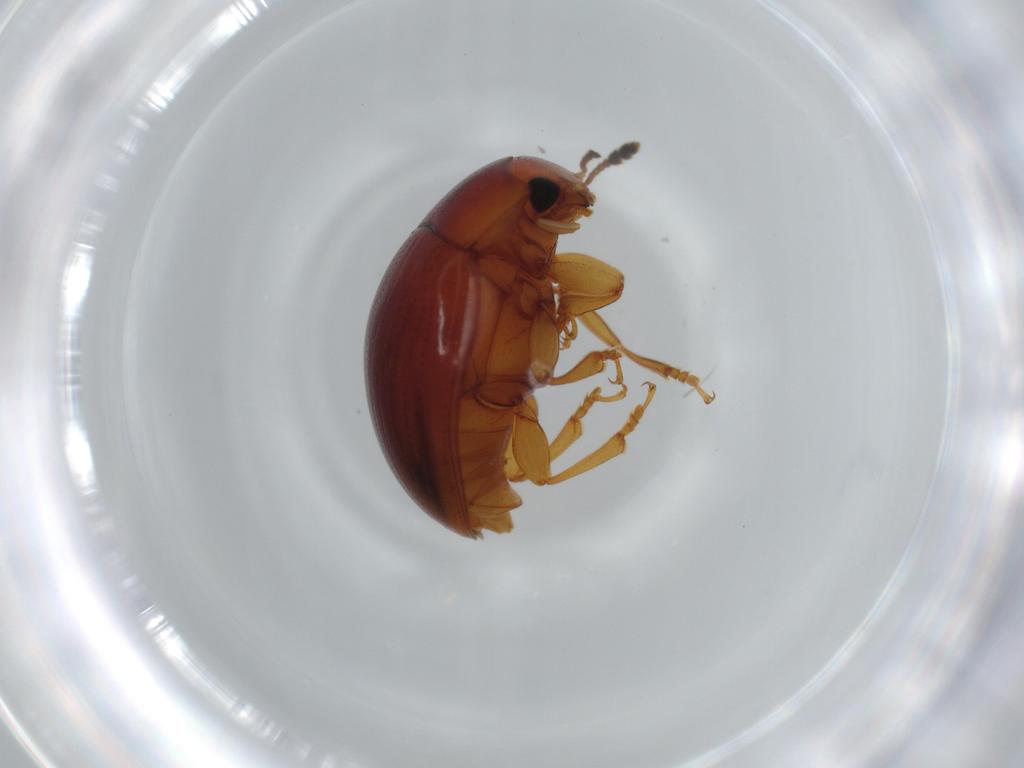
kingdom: Animalia
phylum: Arthropoda
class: Insecta
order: Coleoptera
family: Erotylidae
